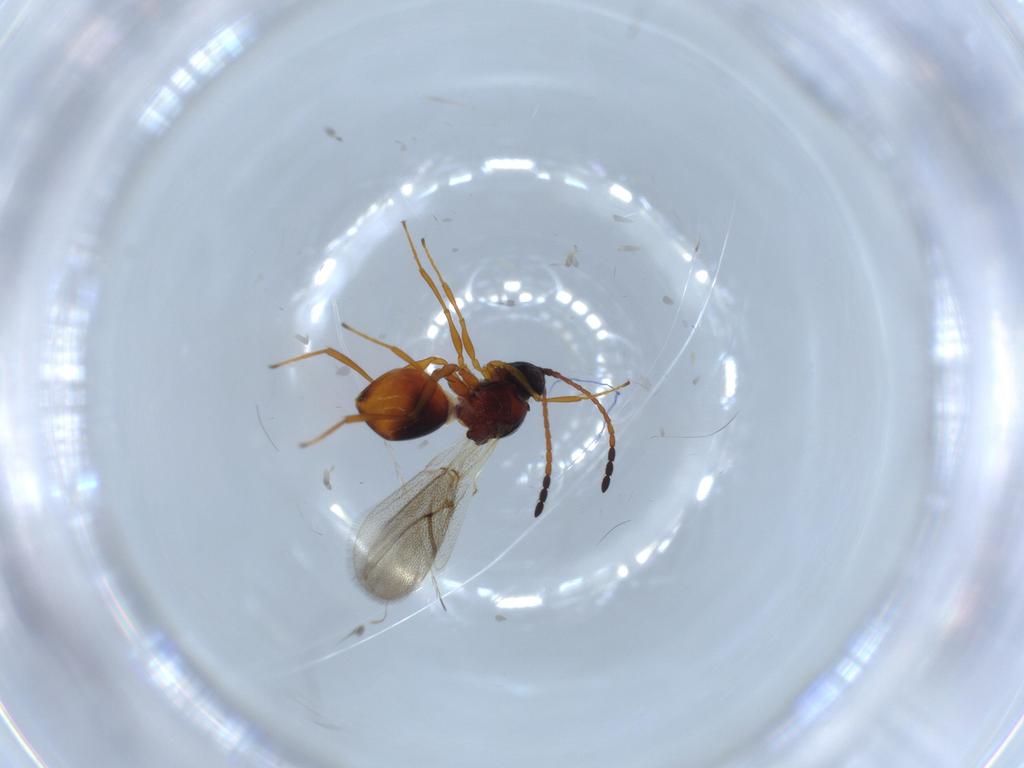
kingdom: Animalia
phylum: Arthropoda
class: Insecta
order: Hymenoptera
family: Figitidae
